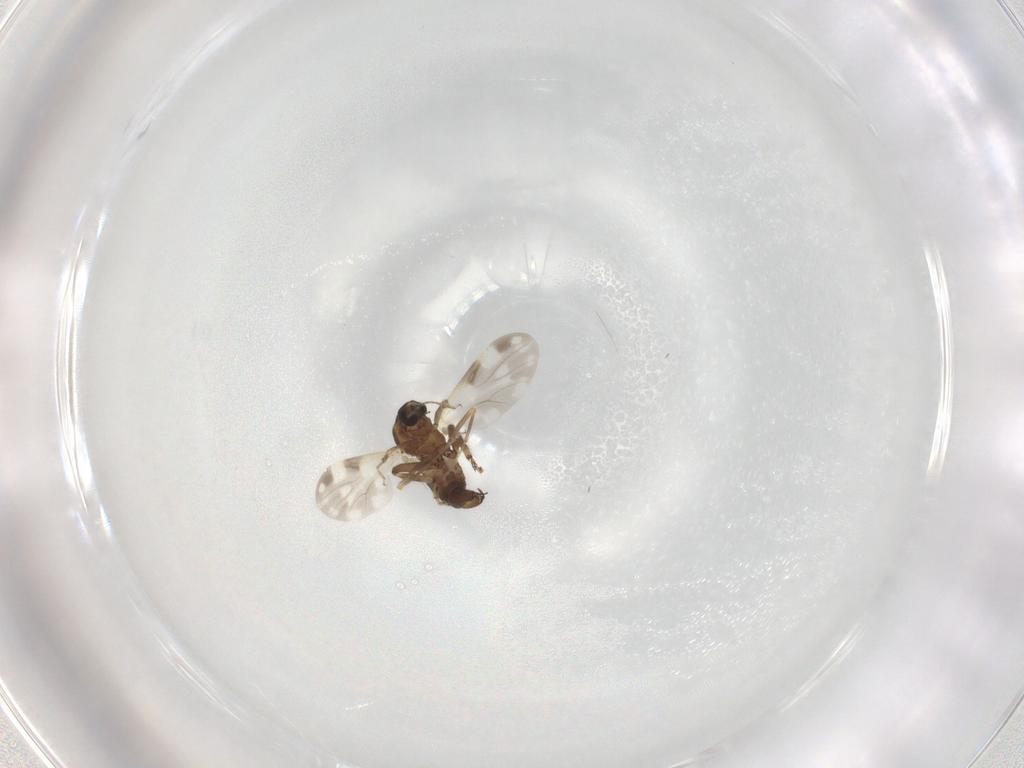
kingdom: Animalia
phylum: Arthropoda
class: Insecta
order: Diptera
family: Ceratopogonidae
